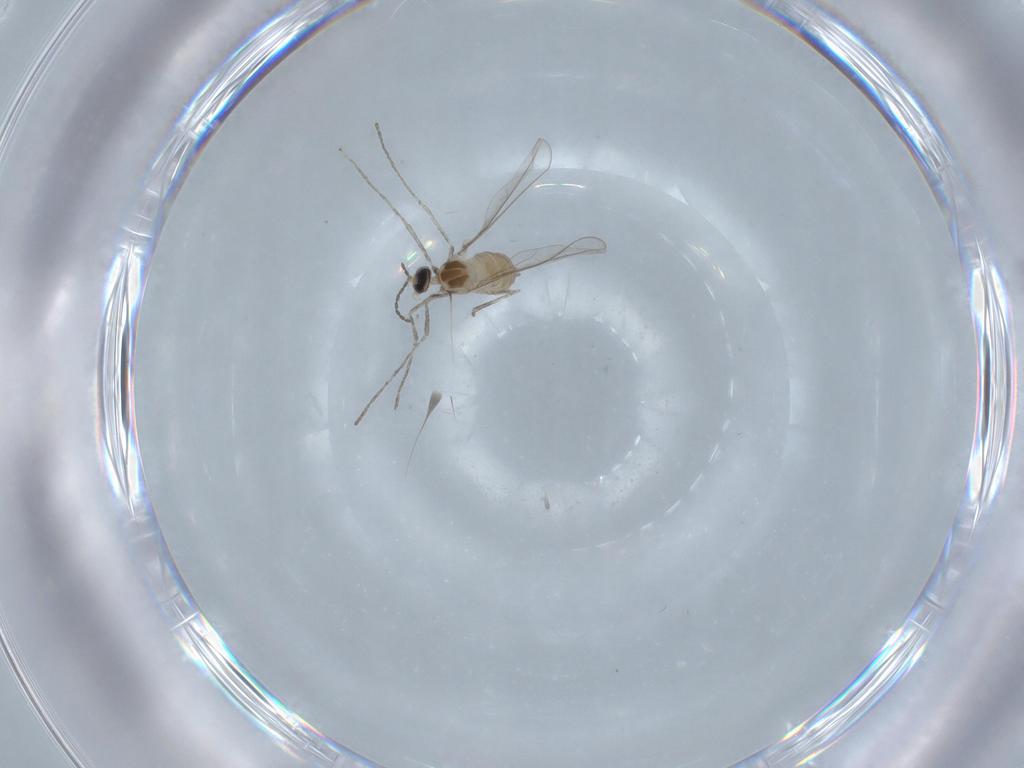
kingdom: Animalia
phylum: Arthropoda
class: Insecta
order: Diptera
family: Cecidomyiidae
